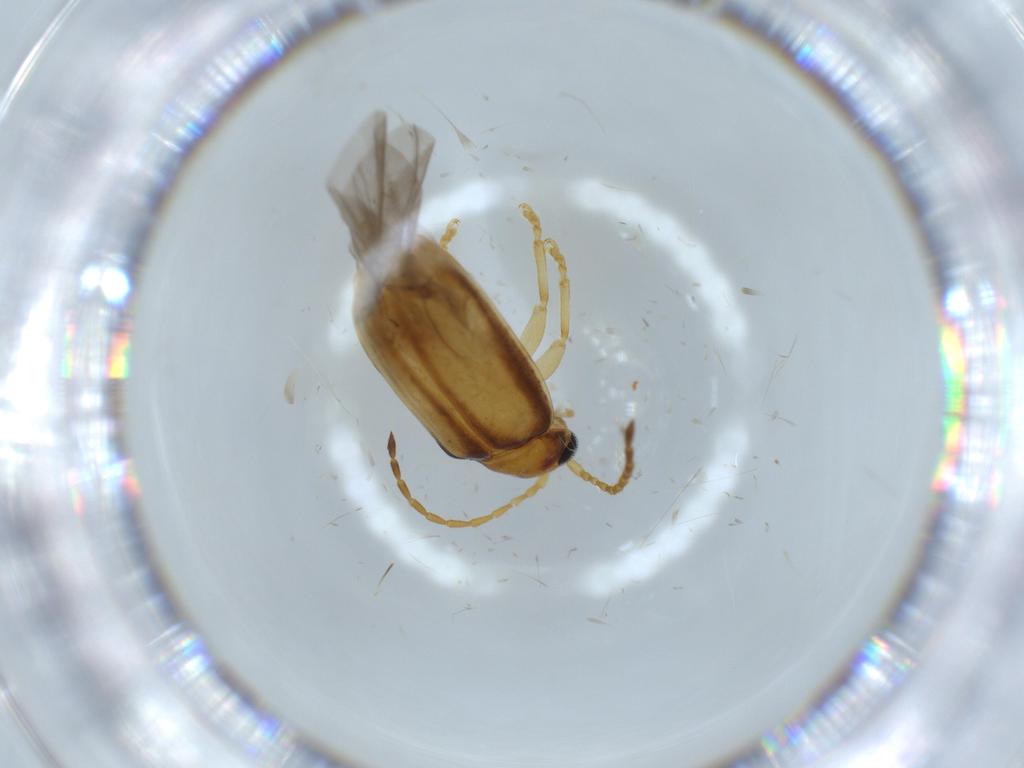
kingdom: Animalia
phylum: Arthropoda
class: Insecta
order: Coleoptera
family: Chrysomelidae
